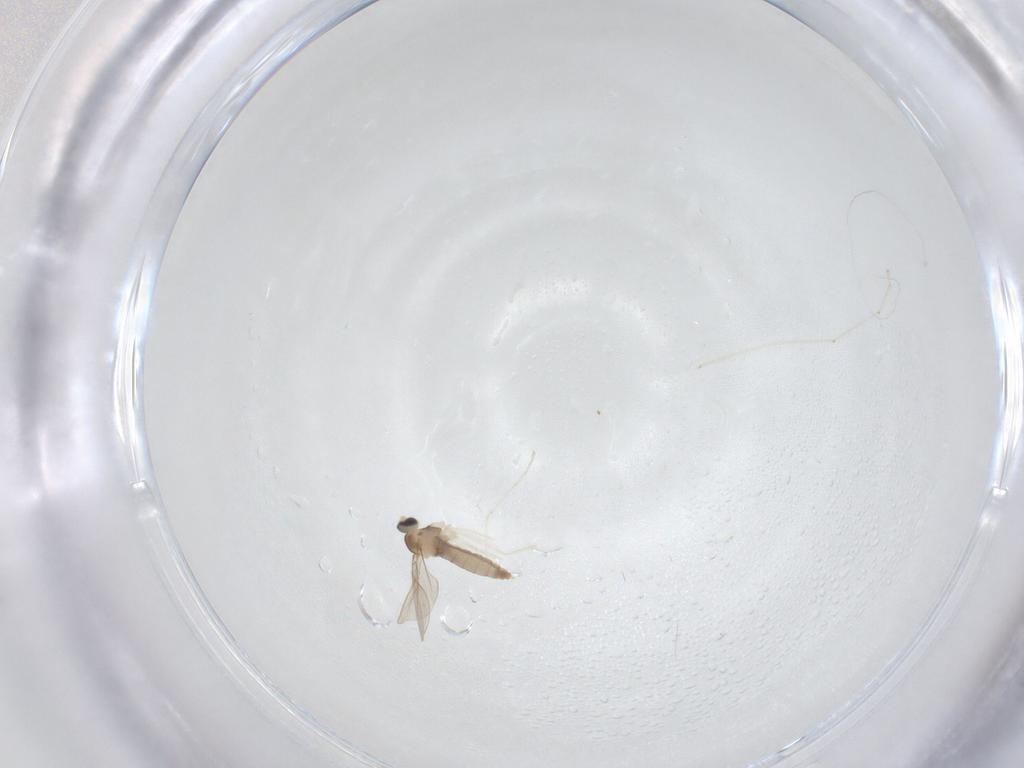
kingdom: Animalia
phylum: Arthropoda
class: Insecta
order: Diptera
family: Cecidomyiidae
